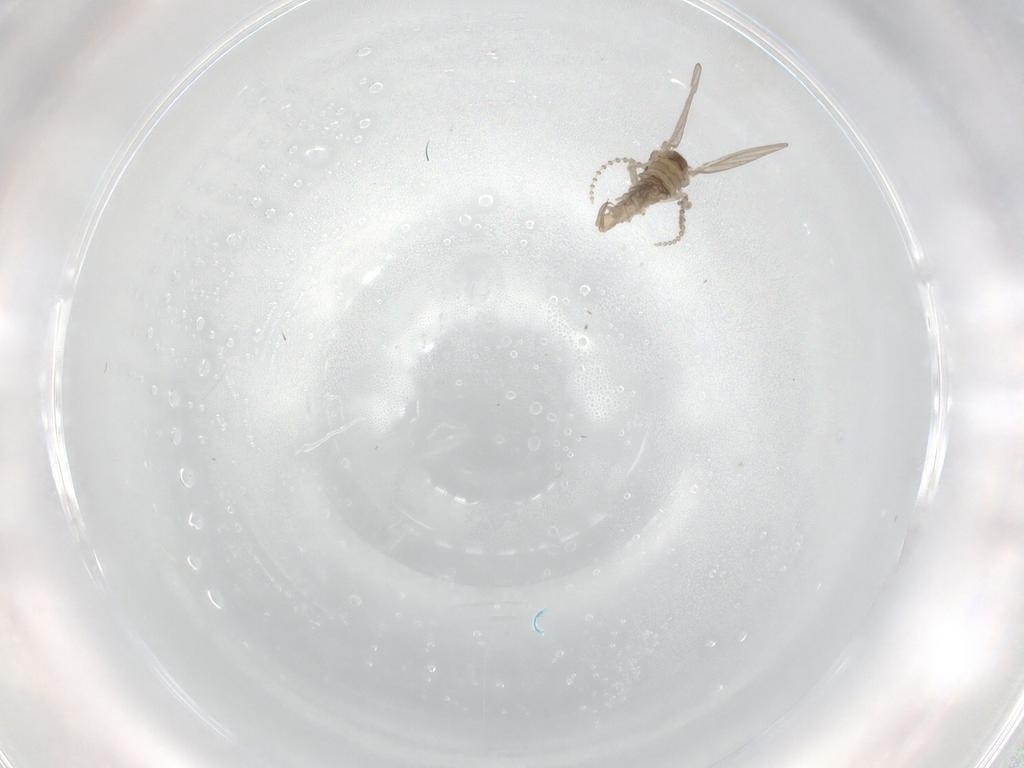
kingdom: Animalia
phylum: Arthropoda
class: Insecta
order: Diptera
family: Psychodidae
